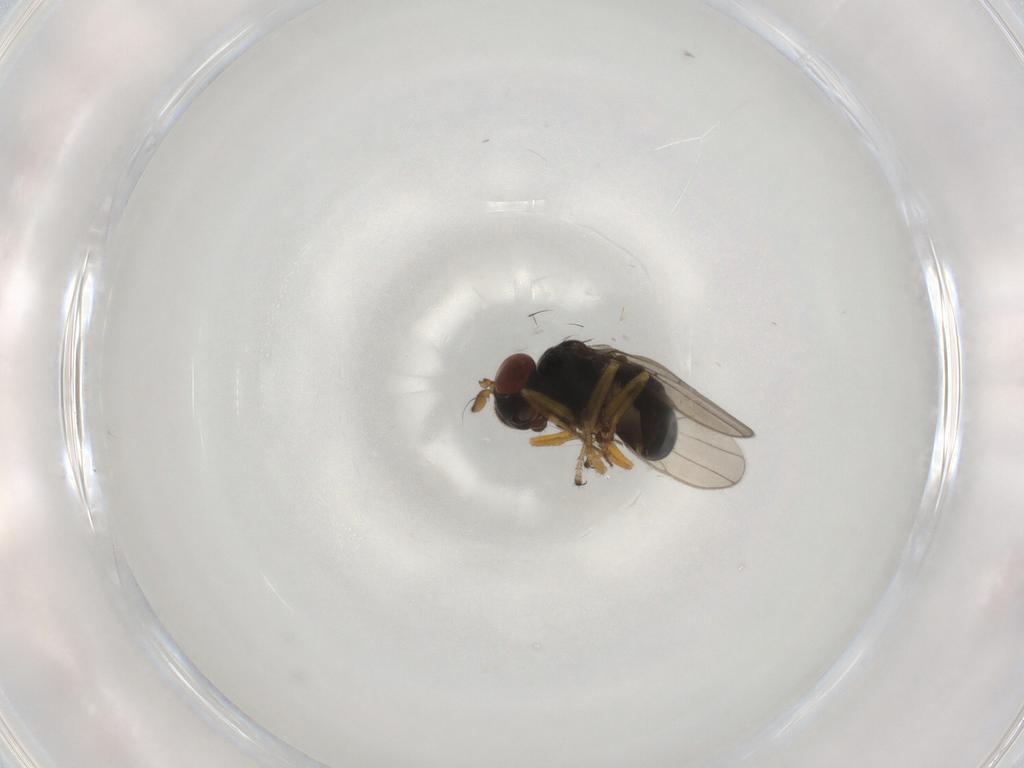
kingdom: Animalia
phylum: Arthropoda
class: Insecta
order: Diptera
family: Ephydridae
